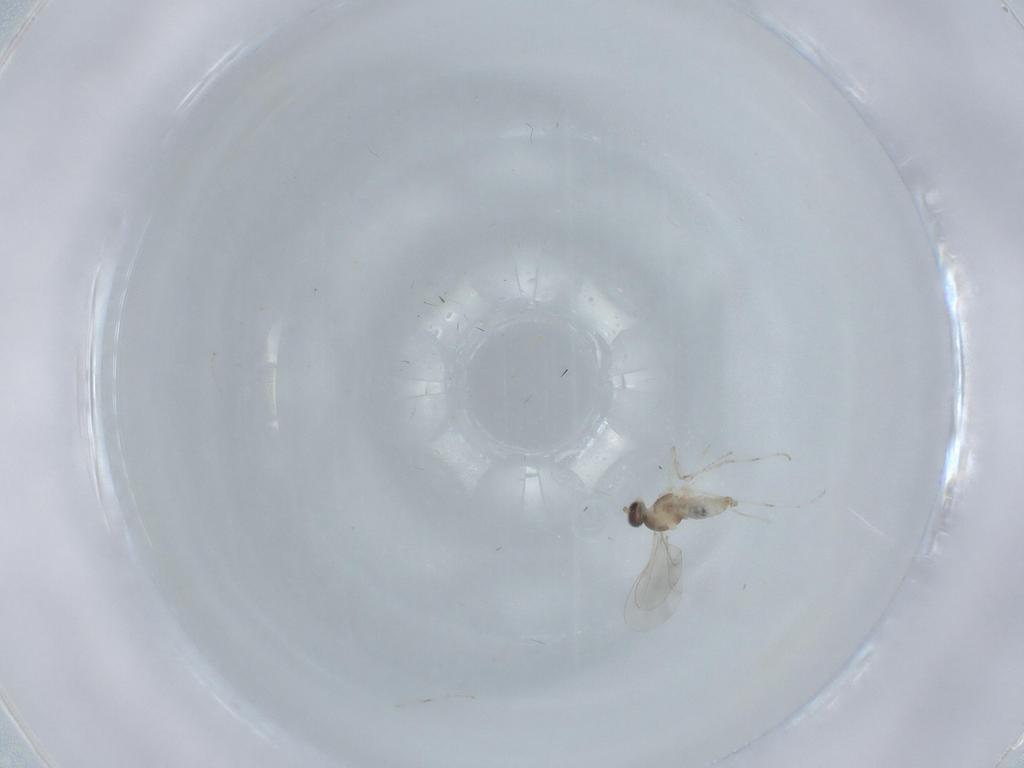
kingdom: Animalia
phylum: Arthropoda
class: Insecta
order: Diptera
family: Cecidomyiidae
